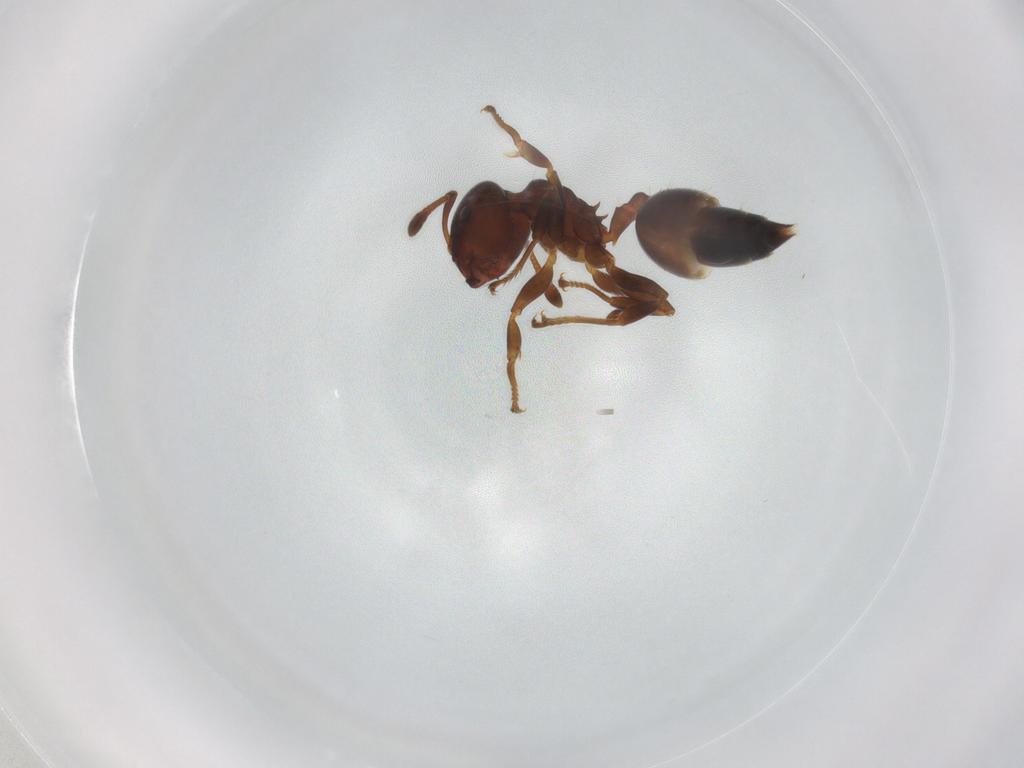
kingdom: Animalia
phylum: Arthropoda
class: Insecta
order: Hymenoptera
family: Formicidae
